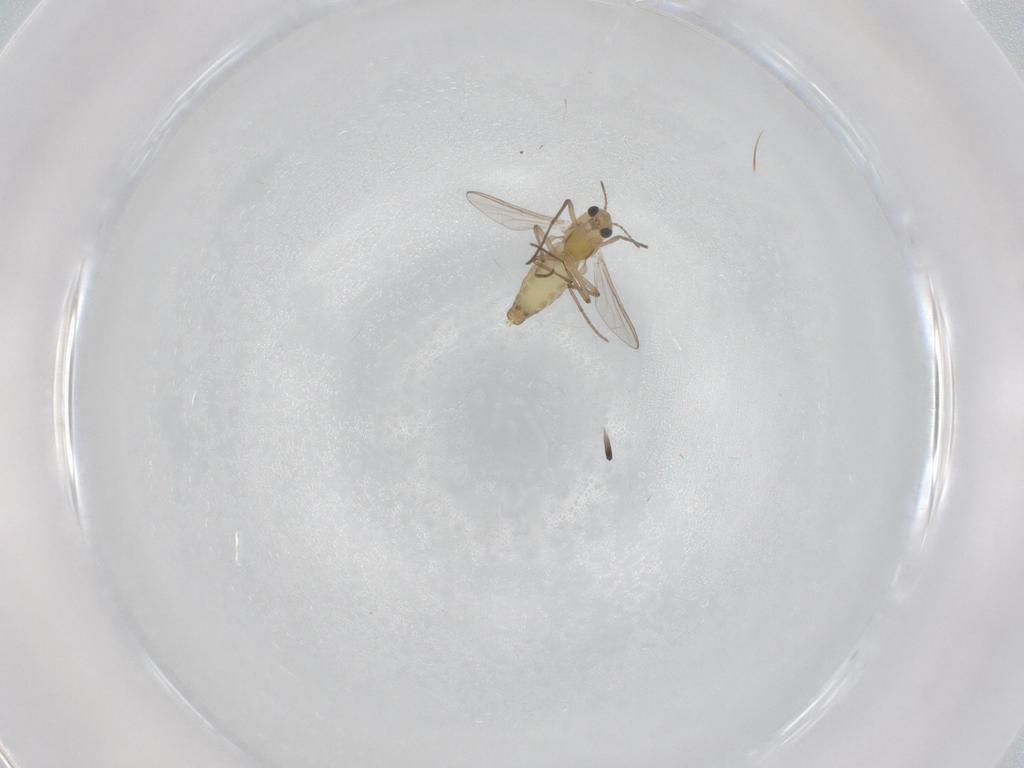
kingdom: Animalia
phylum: Arthropoda
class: Insecta
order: Diptera
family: Chironomidae
